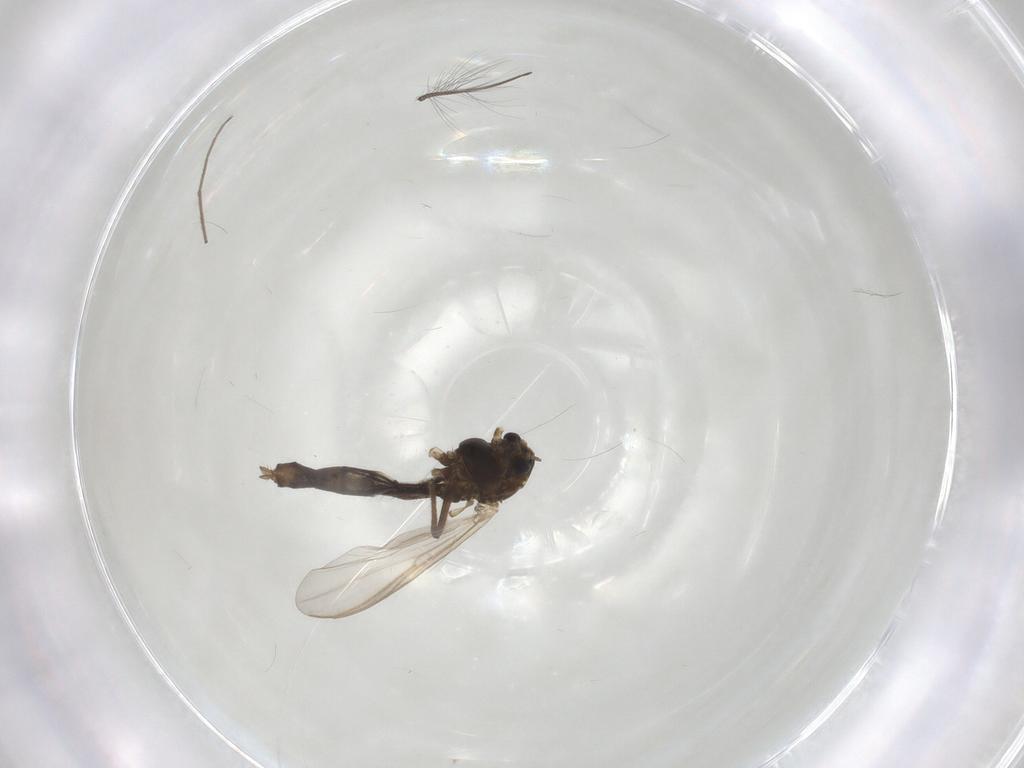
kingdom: Animalia
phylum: Arthropoda
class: Insecta
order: Diptera
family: Chironomidae
